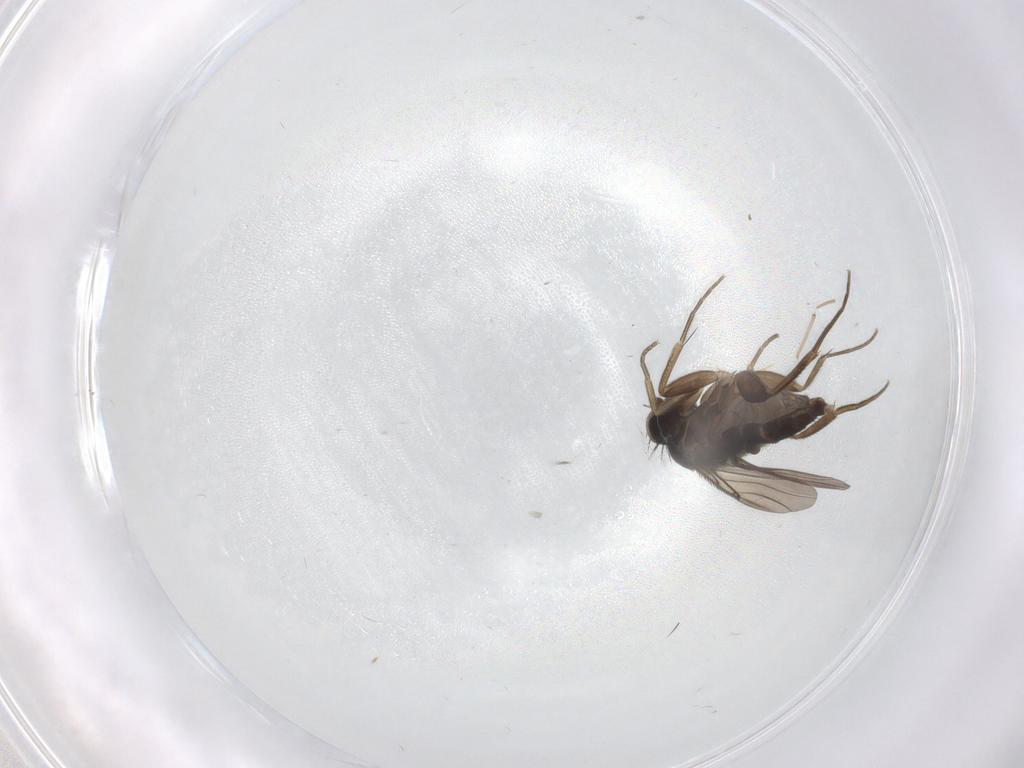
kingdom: Animalia
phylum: Arthropoda
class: Insecta
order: Diptera
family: Phoridae
